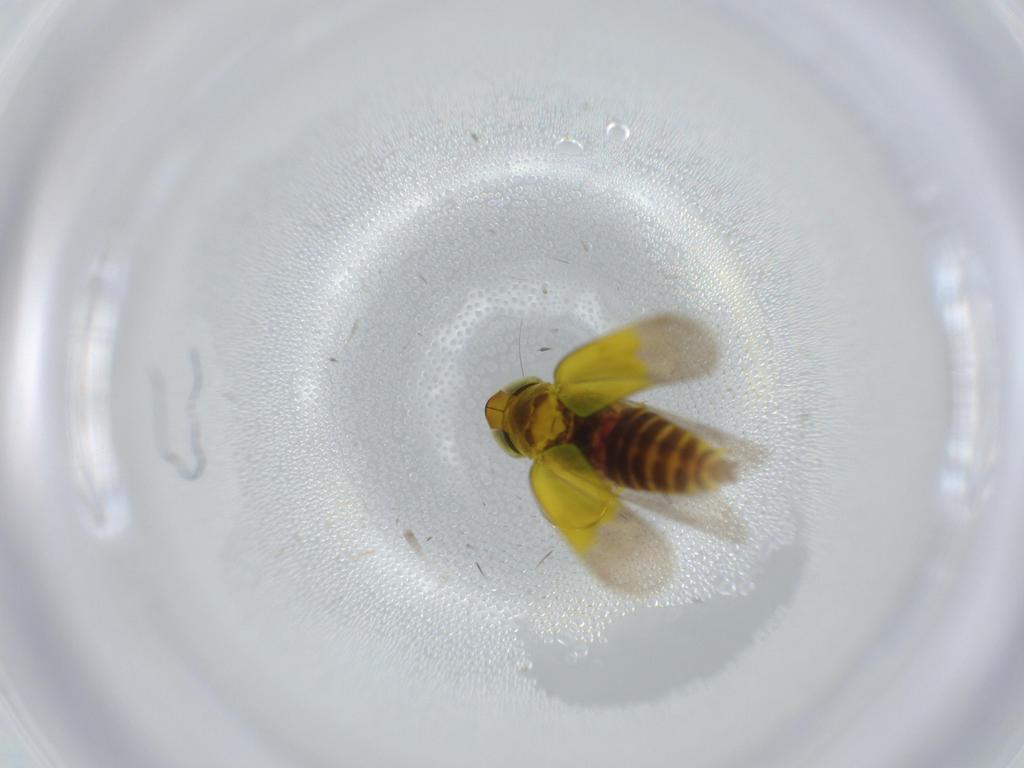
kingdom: Animalia
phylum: Arthropoda
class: Insecta
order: Hemiptera
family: Cicadellidae
